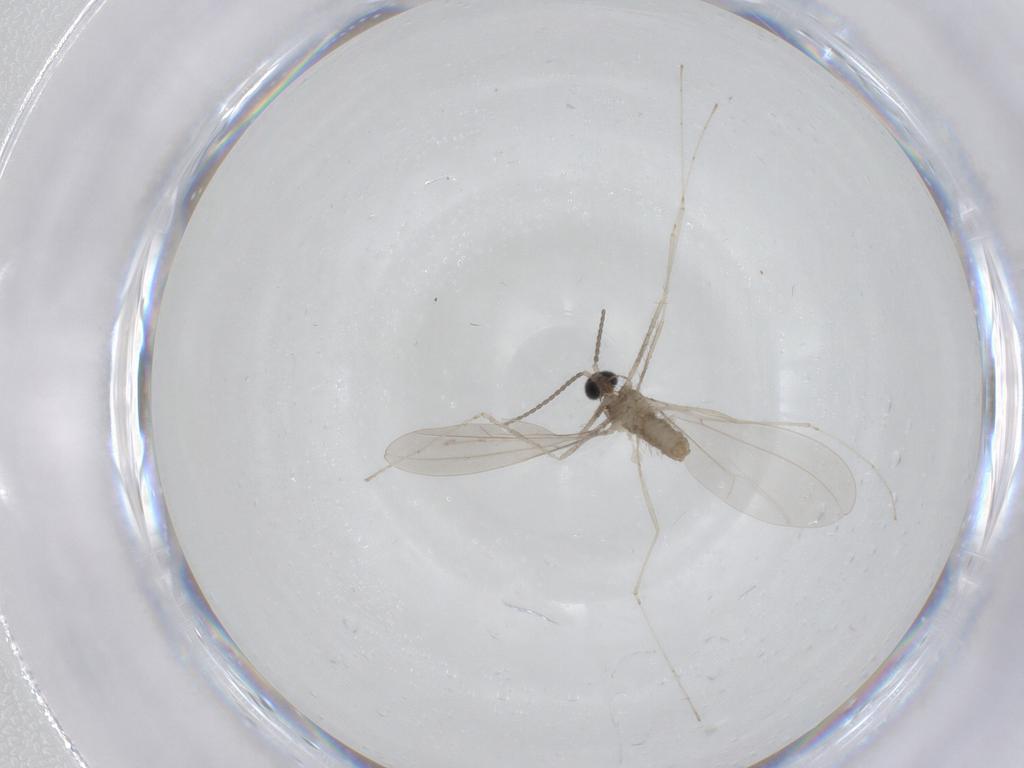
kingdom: Animalia
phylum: Arthropoda
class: Insecta
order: Diptera
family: Cecidomyiidae
